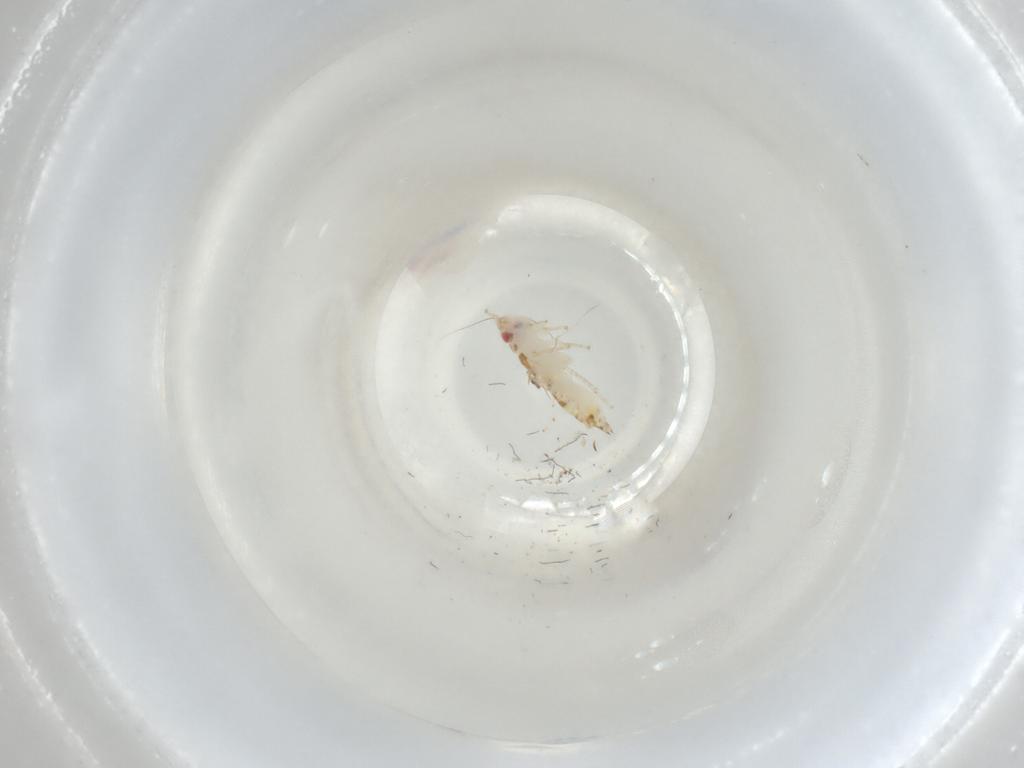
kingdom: Animalia
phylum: Arthropoda
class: Insecta
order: Hemiptera
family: Cicadellidae
